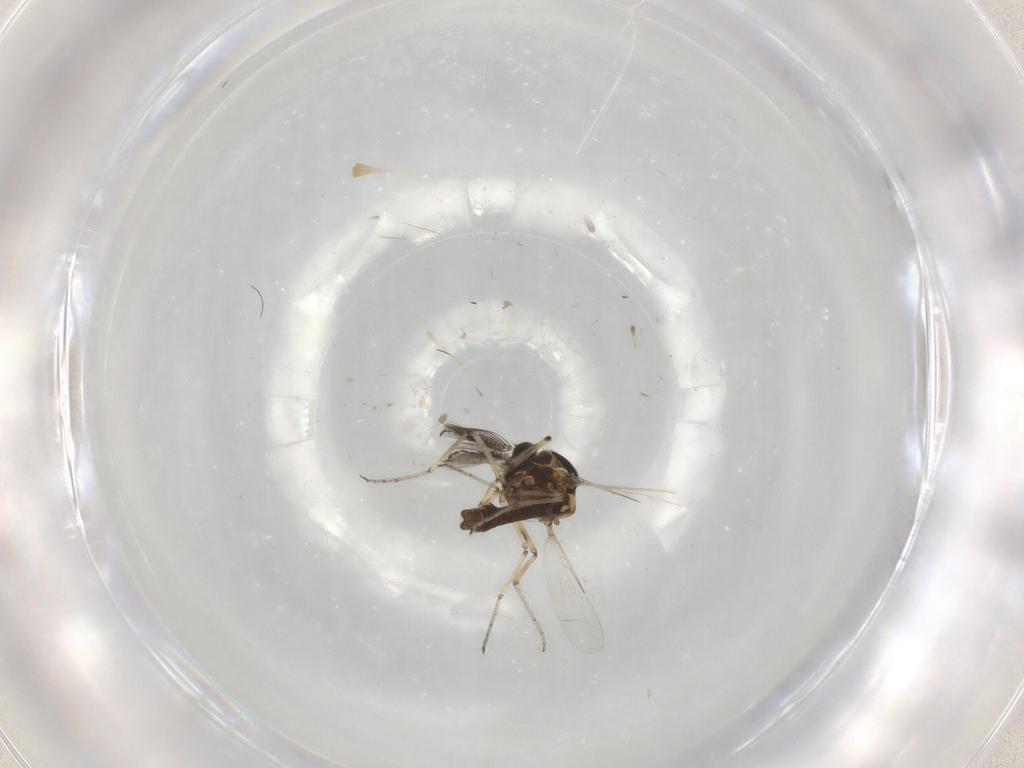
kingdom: Animalia
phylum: Arthropoda
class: Insecta
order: Diptera
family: Ceratopogonidae
